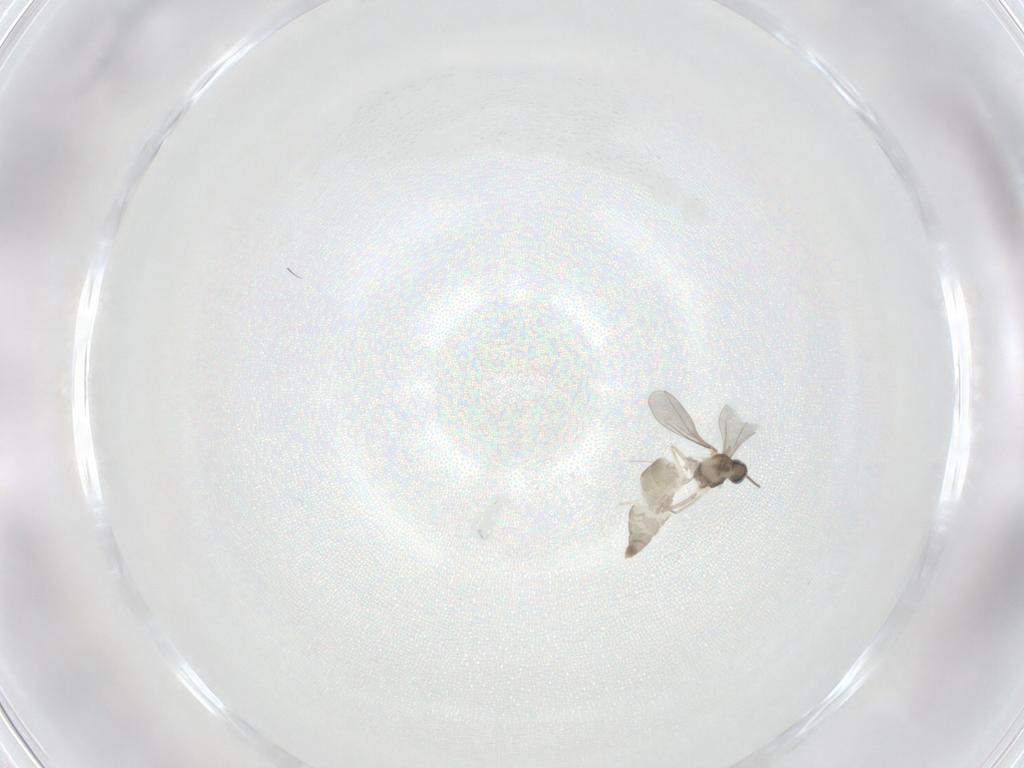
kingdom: Animalia
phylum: Arthropoda
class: Insecta
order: Diptera
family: Cecidomyiidae
